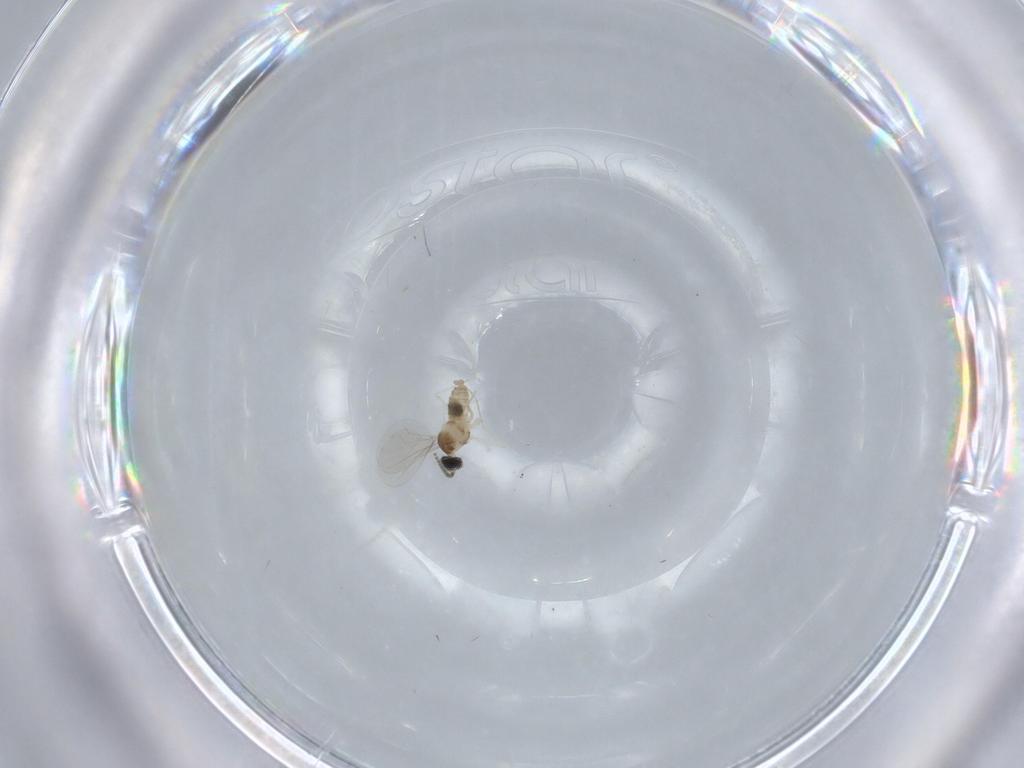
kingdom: Animalia
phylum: Arthropoda
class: Insecta
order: Diptera
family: Cecidomyiidae
